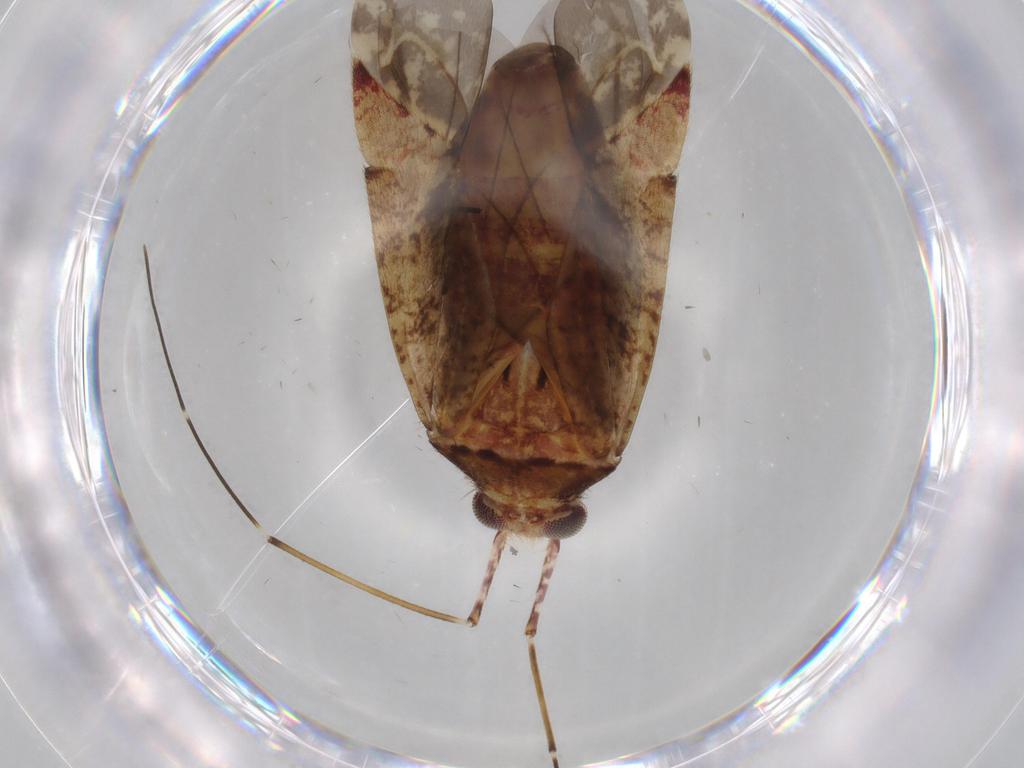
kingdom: Animalia
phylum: Arthropoda
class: Insecta
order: Hemiptera
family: Miridae
